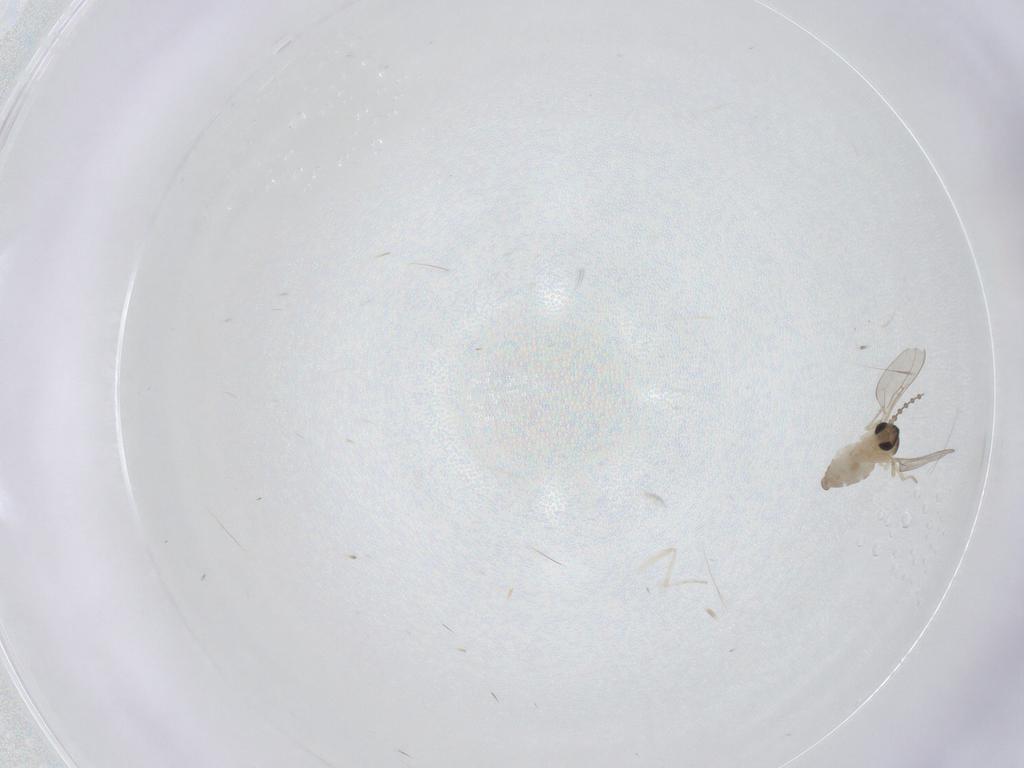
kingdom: Animalia
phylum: Arthropoda
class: Insecta
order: Diptera
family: Cecidomyiidae
